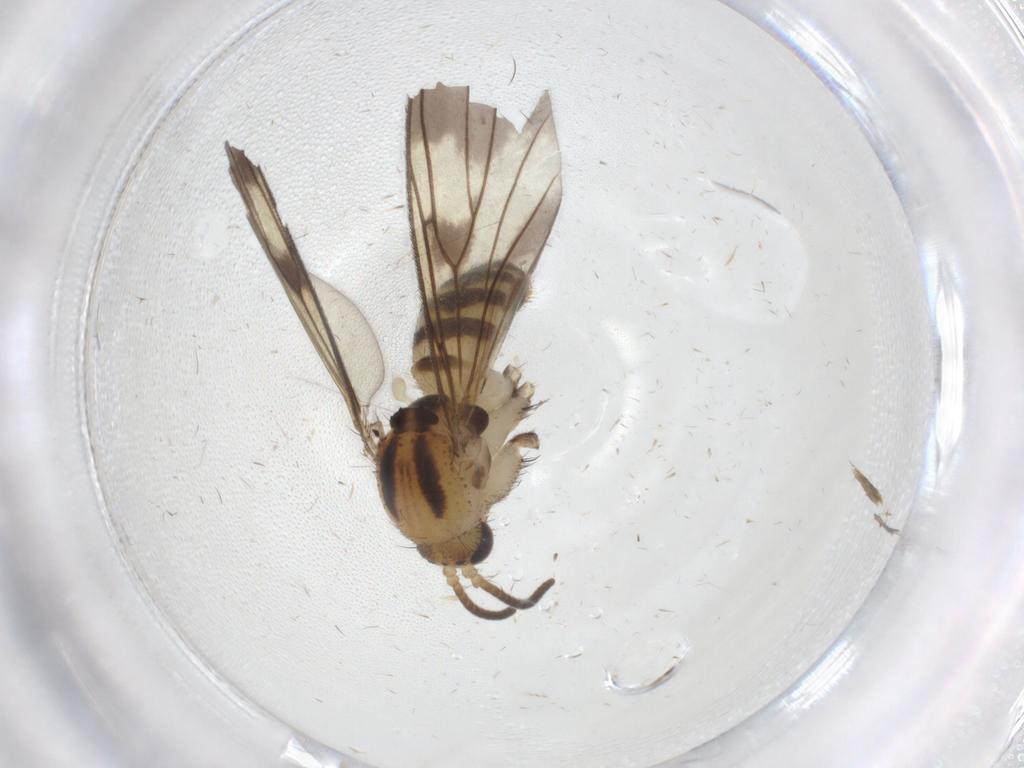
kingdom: Animalia
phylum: Arthropoda
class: Insecta
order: Diptera
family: Mycetophilidae
